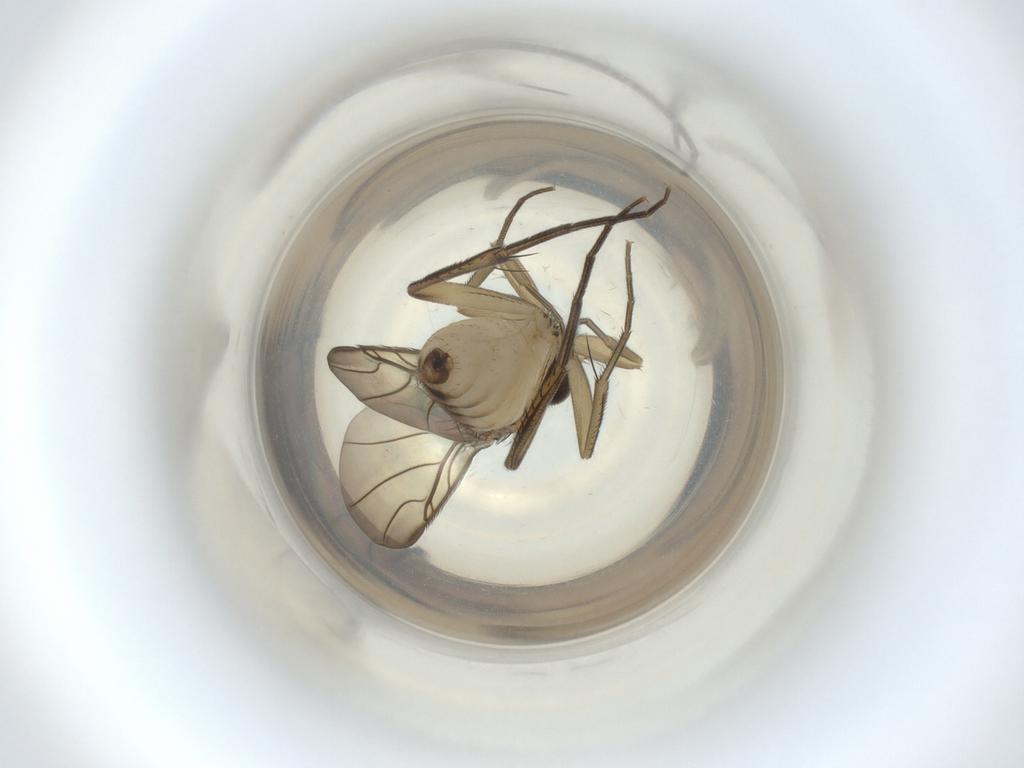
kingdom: Animalia
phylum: Arthropoda
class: Insecta
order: Diptera
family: Phoridae
